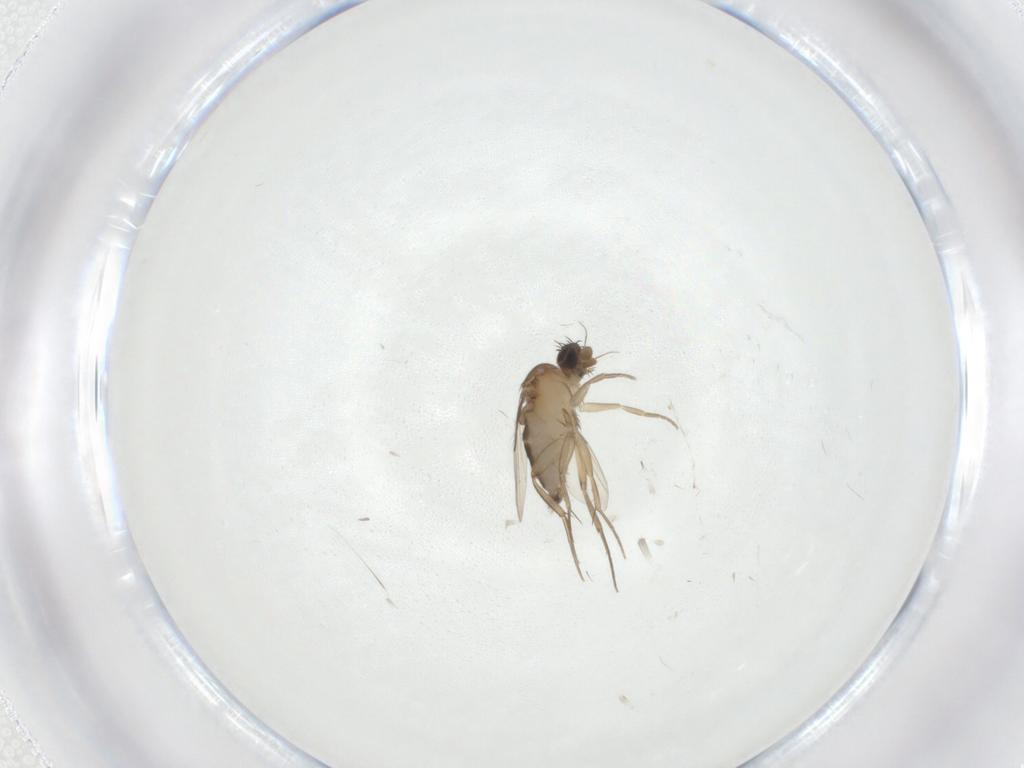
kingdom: Animalia
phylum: Arthropoda
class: Insecta
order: Diptera
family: Phoridae
